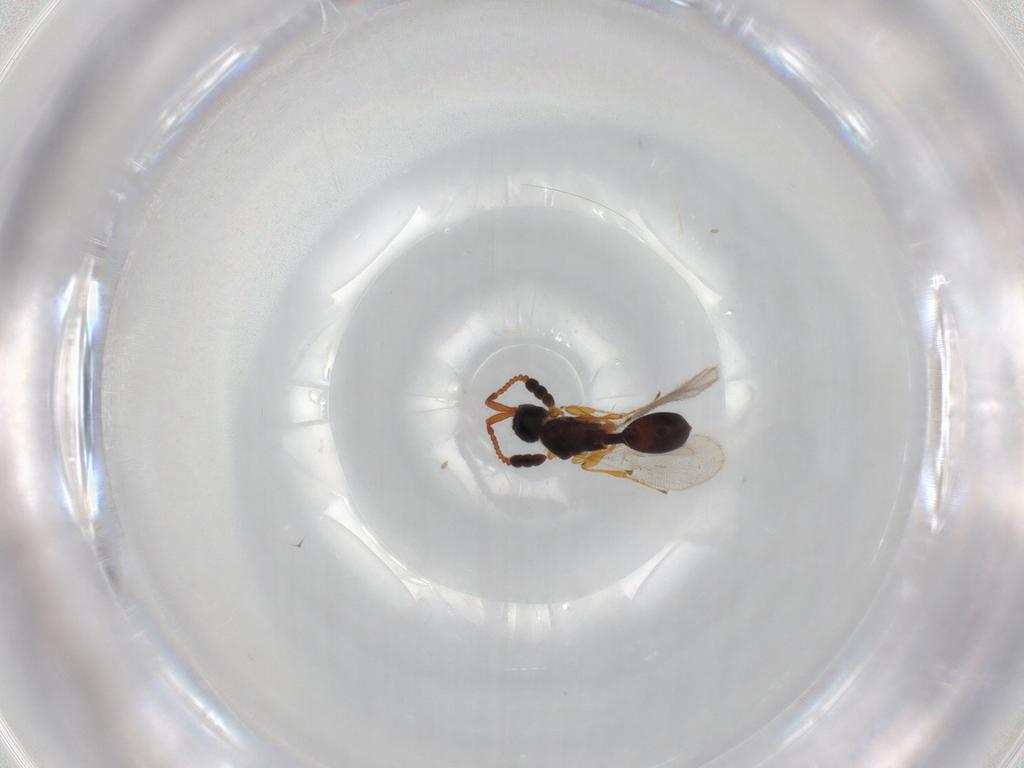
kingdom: Animalia
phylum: Arthropoda
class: Insecta
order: Hymenoptera
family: Diapriidae
